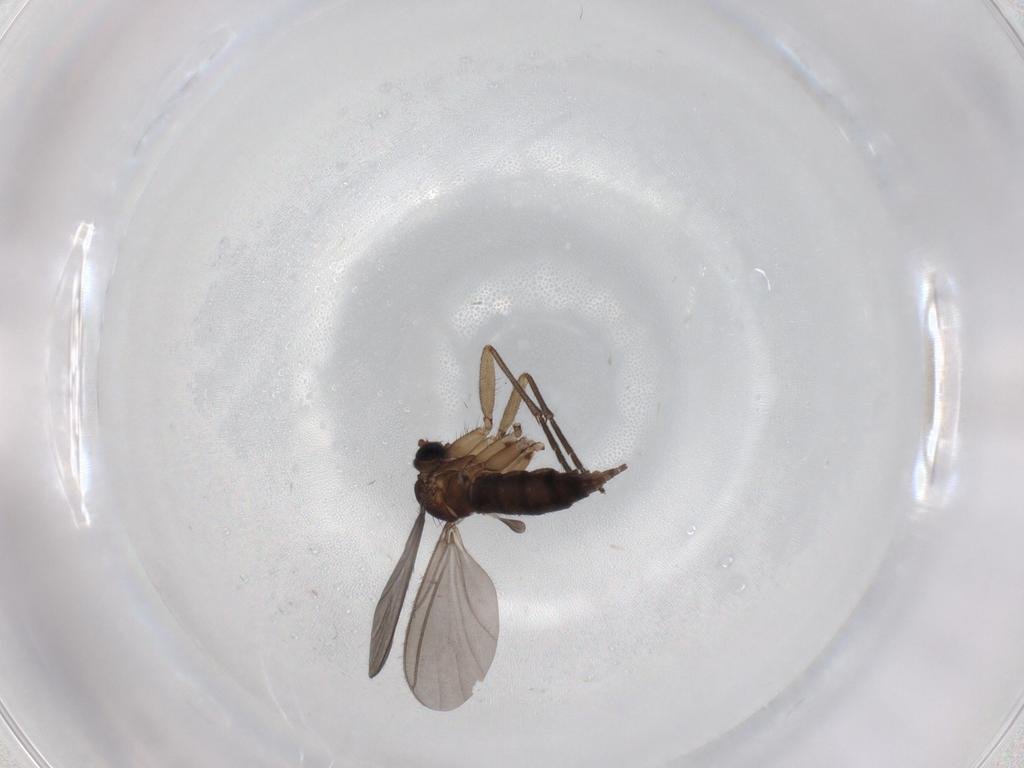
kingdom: Animalia
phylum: Arthropoda
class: Insecta
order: Diptera
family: Sciaridae
